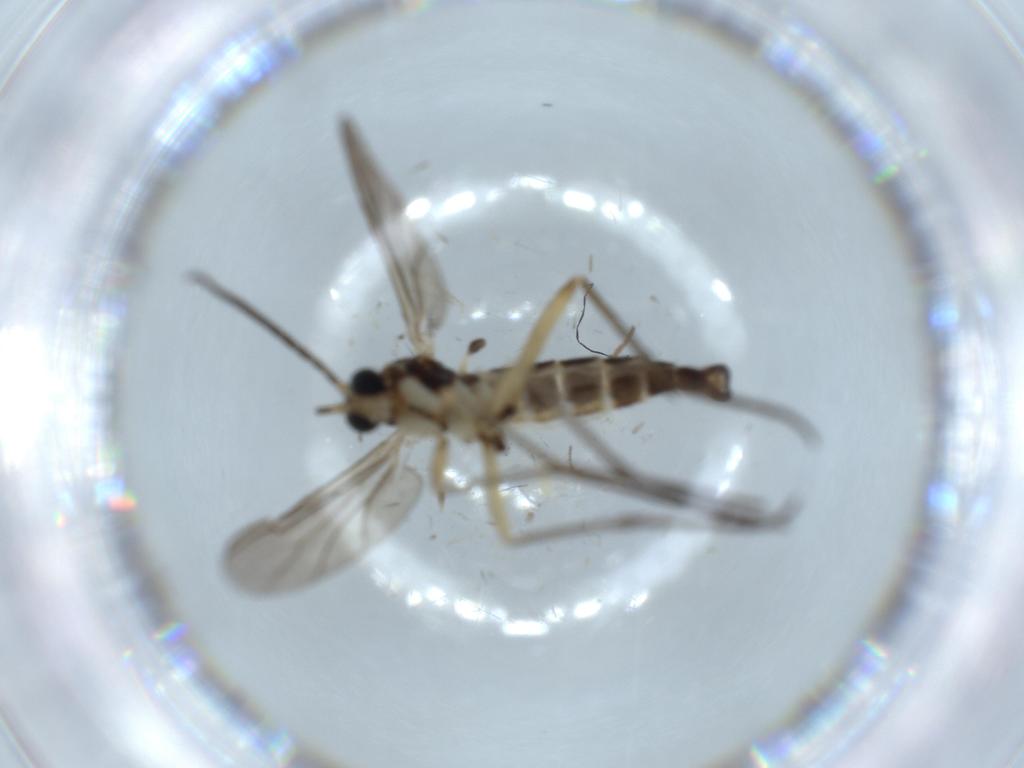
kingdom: Animalia
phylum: Arthropoda
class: Insecta
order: Diptera
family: Sciaridae
